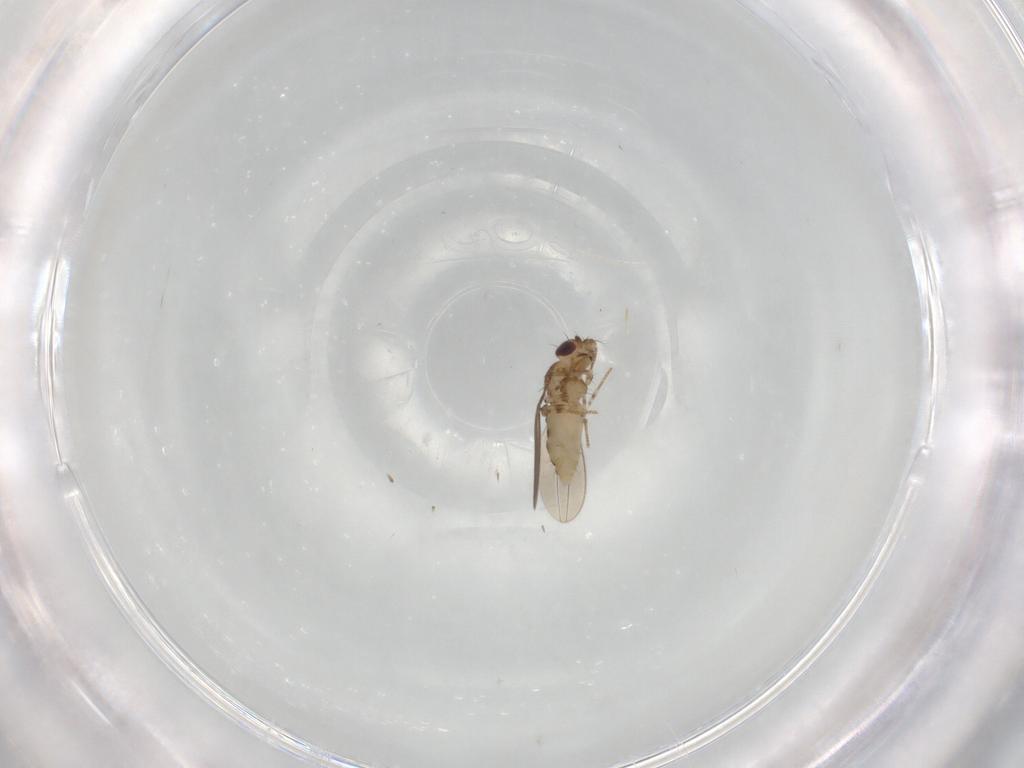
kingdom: Animalia
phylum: Arthropoda
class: Insecta
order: Diptera
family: Asteiidae
